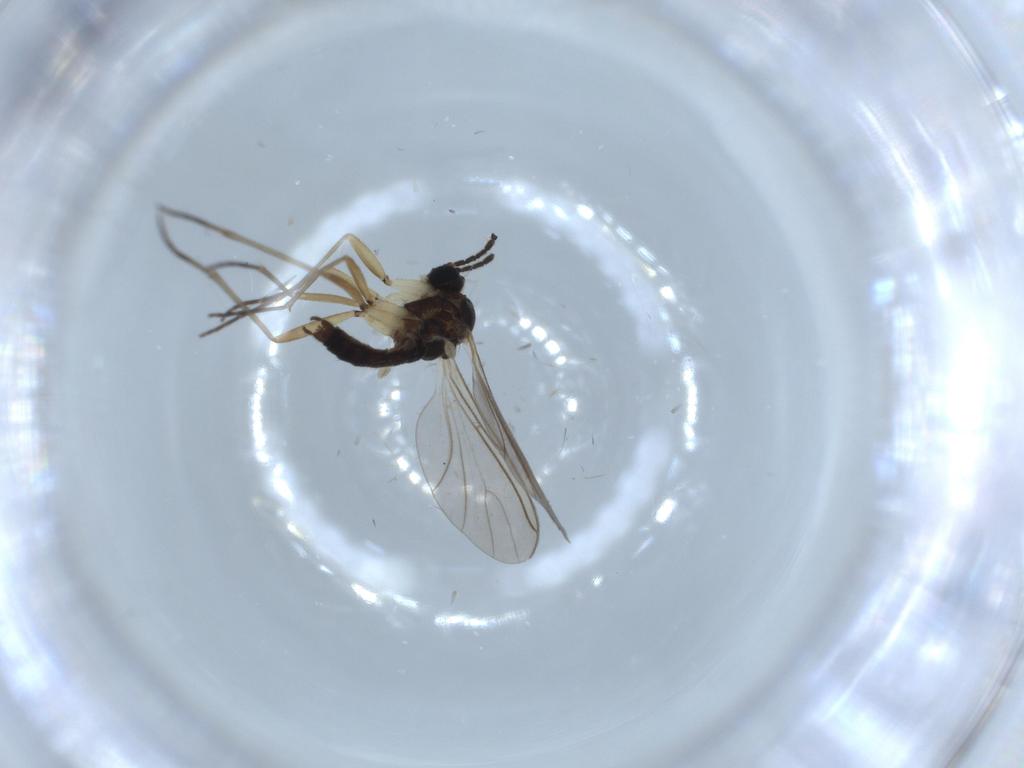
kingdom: Animalia
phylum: Arthropoda
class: Insecta
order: Diptera
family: Sciaridae
